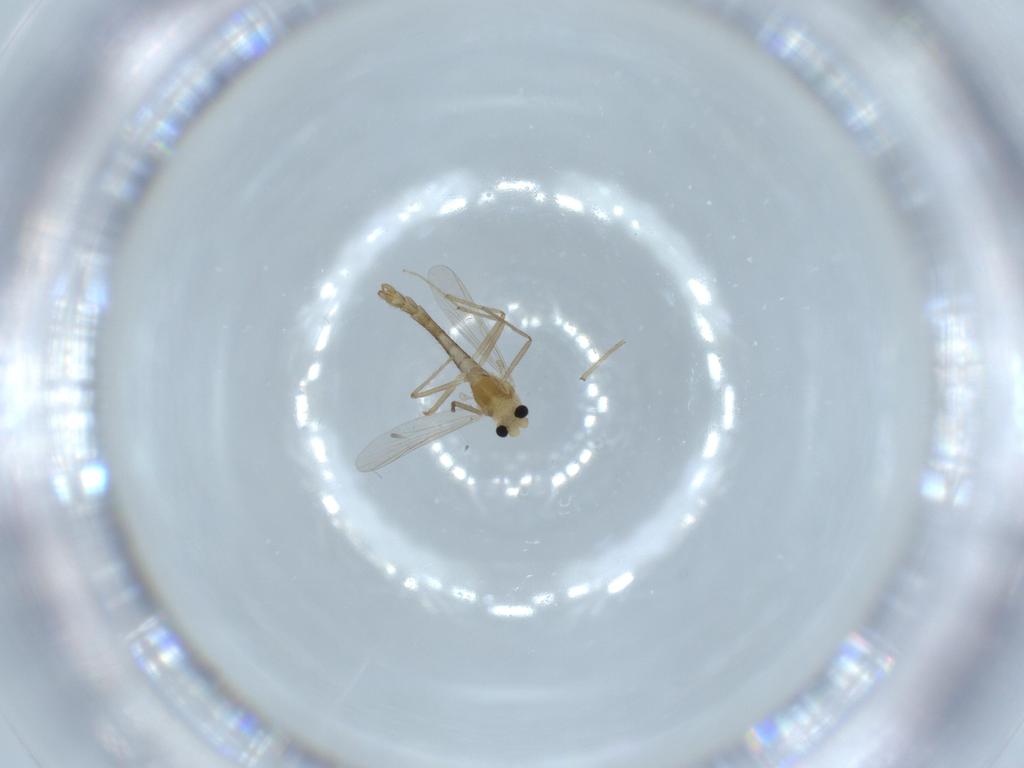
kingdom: Animalia
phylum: Arthropoda
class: Insecta
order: Diptera
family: Chironomidae
